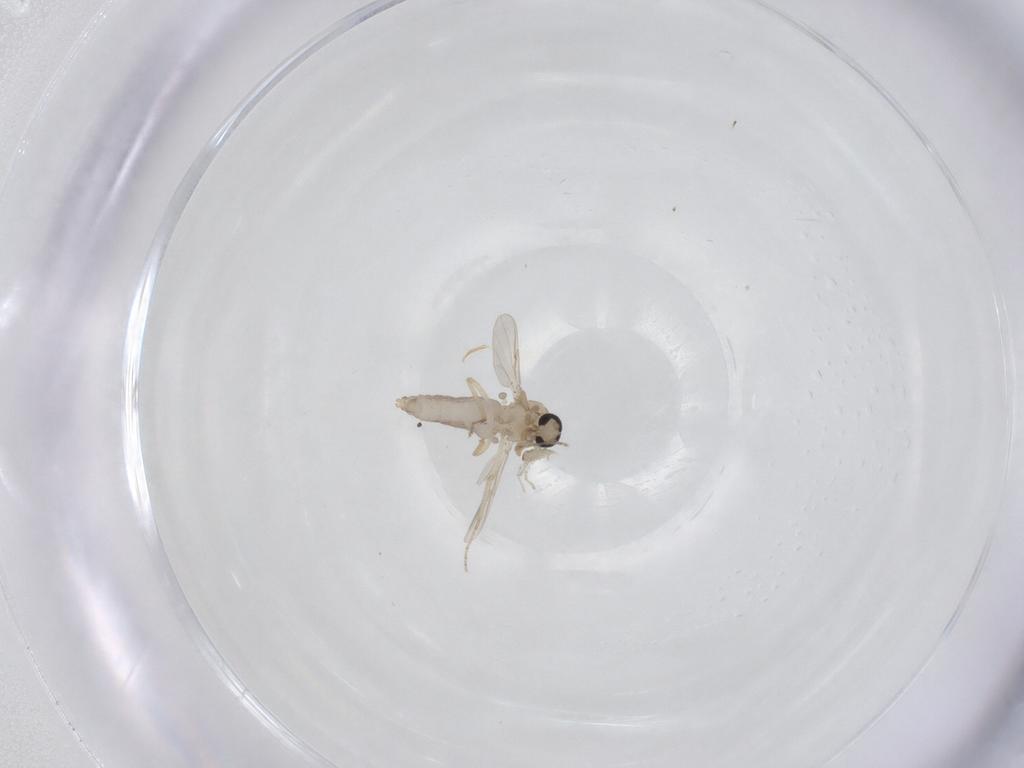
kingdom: Animalia
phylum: Arthropoda
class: Insecta
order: Diptera
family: Ceratopogonidae
